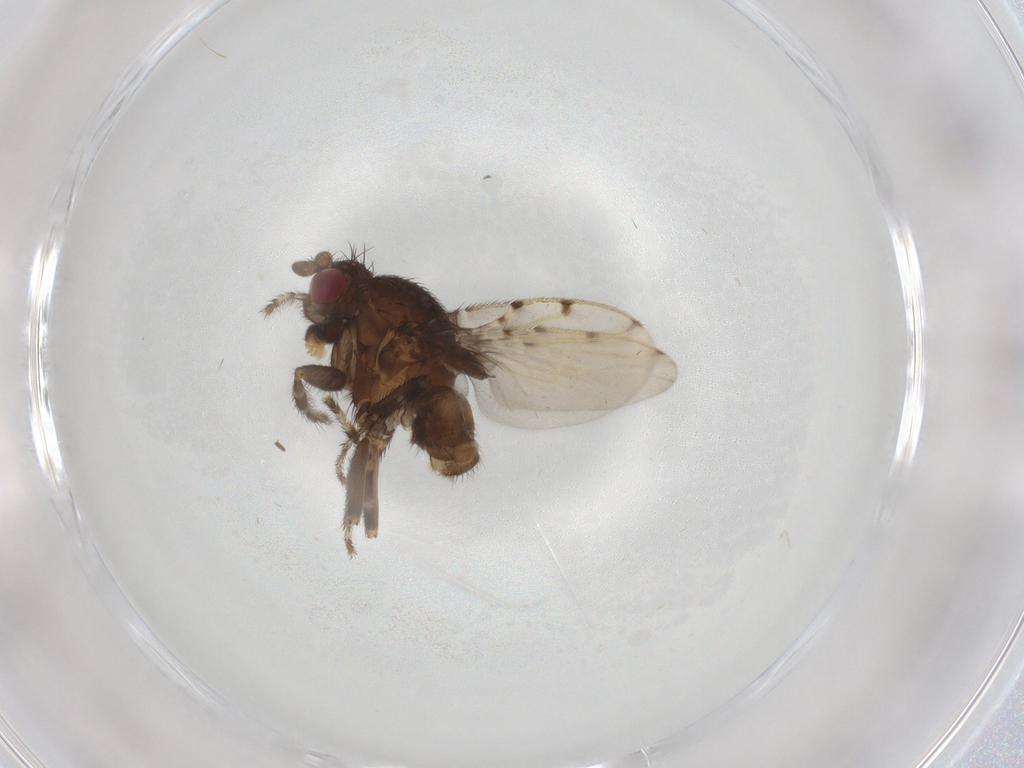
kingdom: Animalia
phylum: Arthropoda
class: Insecta
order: Diptera
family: Sphaeroceridae
